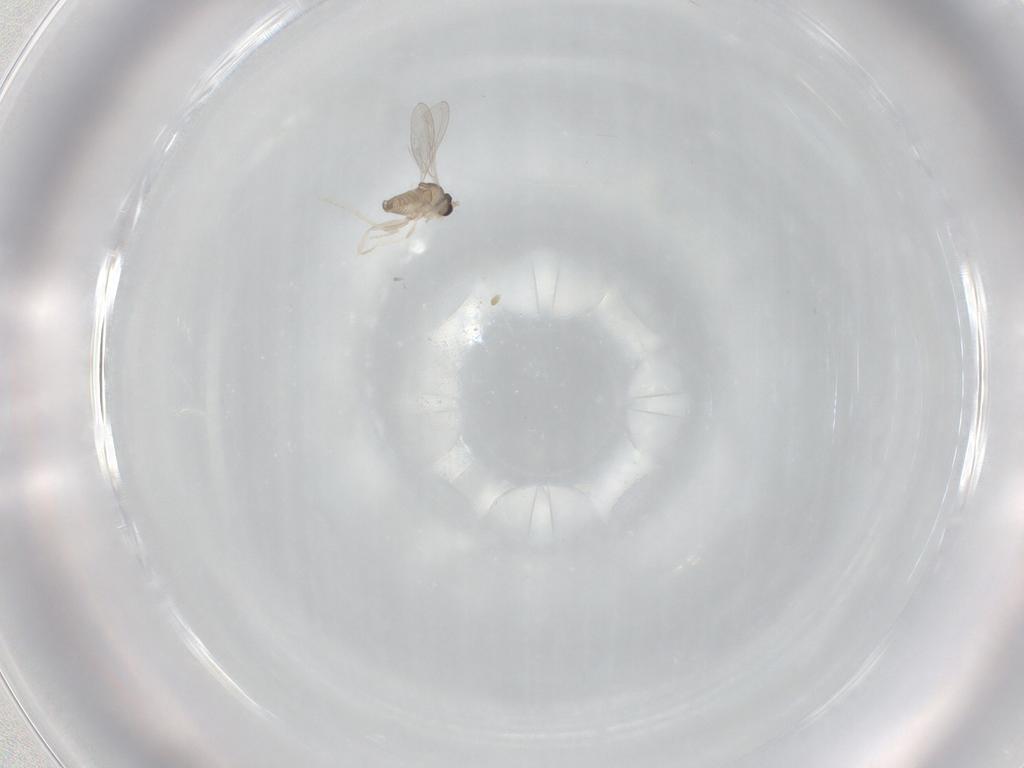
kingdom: Animalia
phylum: Arthropoda
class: Insecta
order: Diptera
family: Cecidomyiidae
